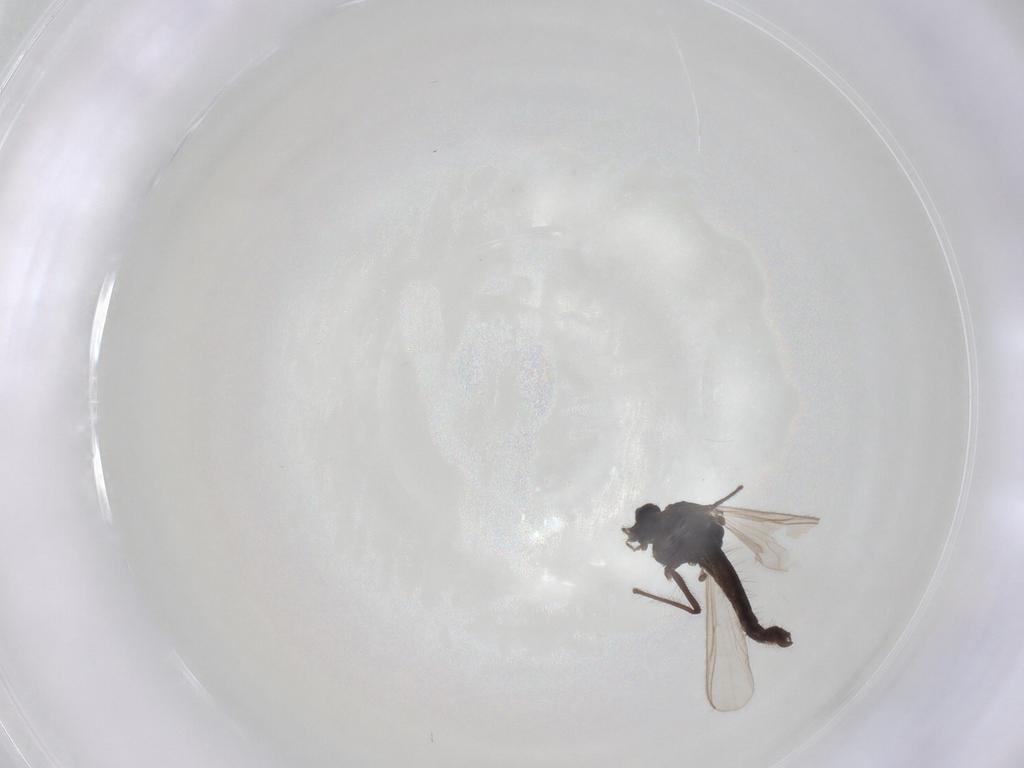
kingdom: Animalia
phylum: Arthropoda
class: Insecta
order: Diptera
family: Chironomidae
